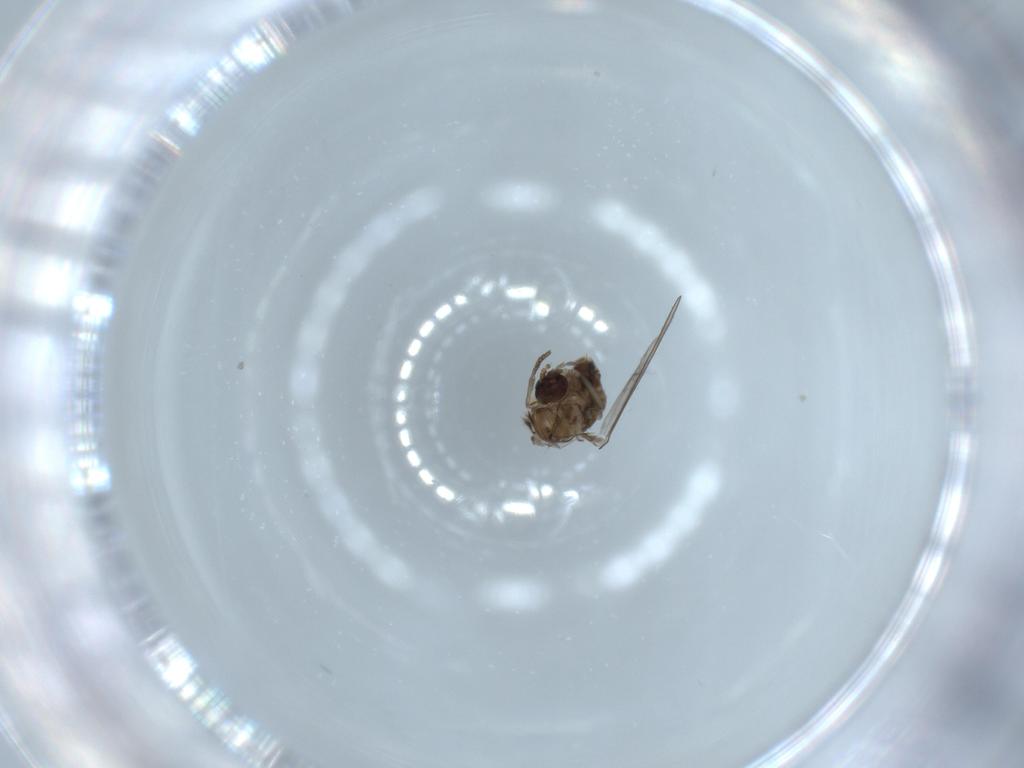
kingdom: Animalia
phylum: Arthropoda
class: Insecta
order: Diptera
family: Psychodidae
